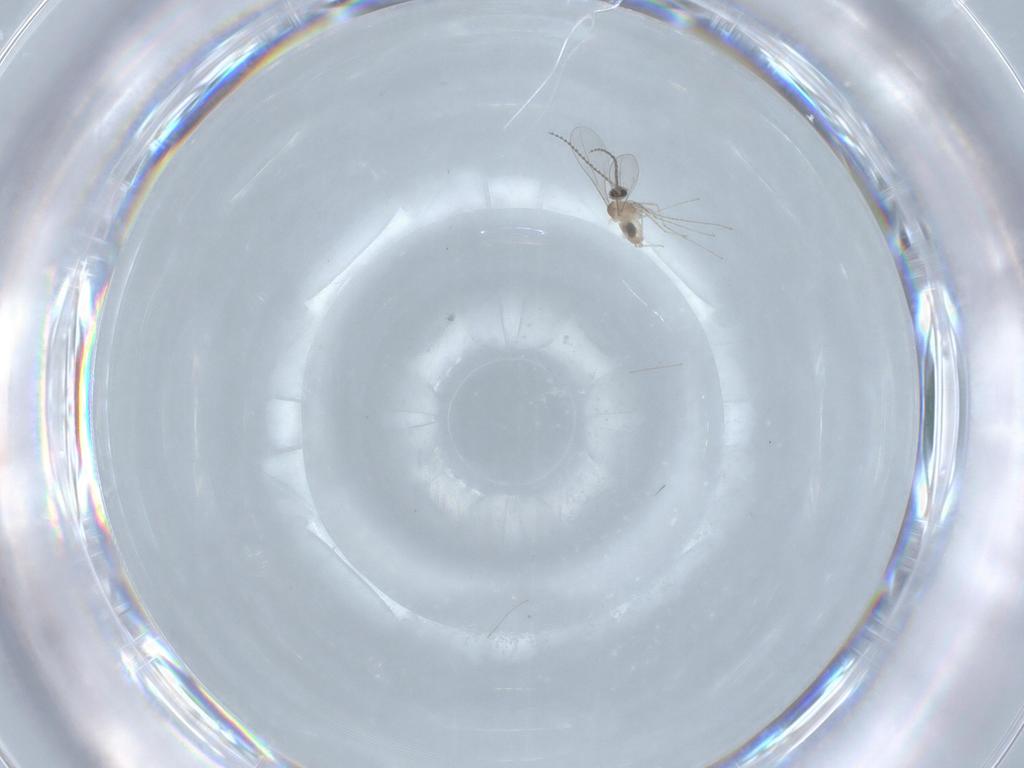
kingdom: Animalia
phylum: Arthropoda
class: Insecta
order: Diptera
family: Cecidomyiidae
